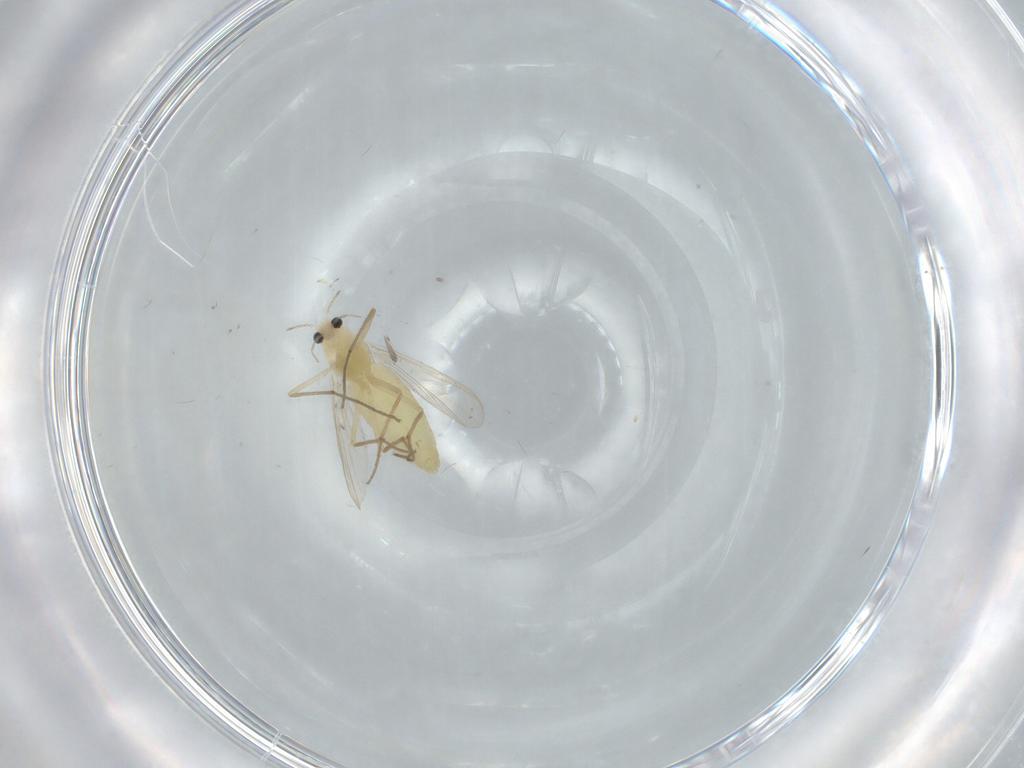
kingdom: Animalia
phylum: Arthropoda
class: Insecta
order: Diptera
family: Chironomidae
